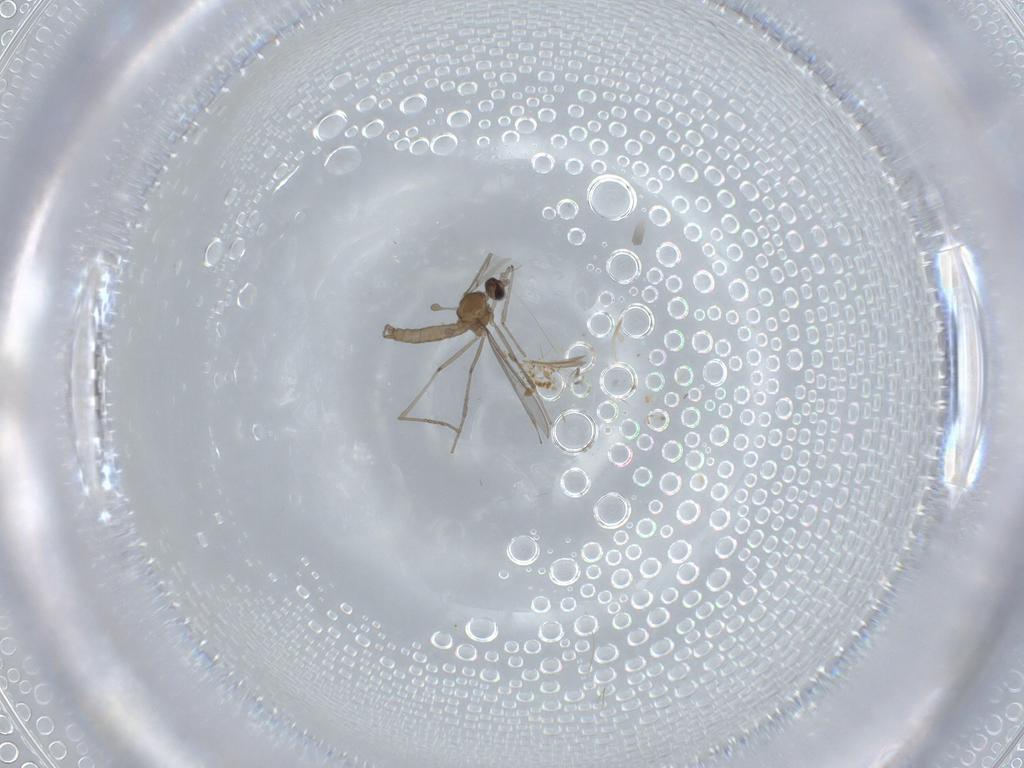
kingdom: Animalia
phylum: Arthropoda
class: Insecta
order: Diptera
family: Cecidomyiidae
